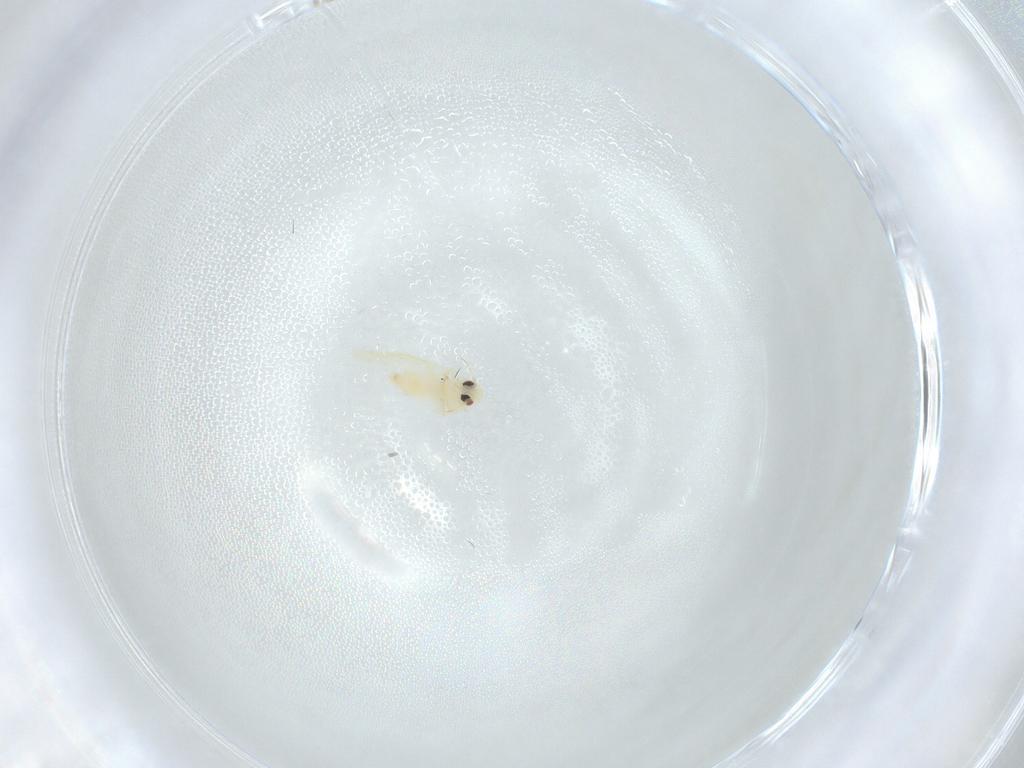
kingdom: Animalia
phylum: Arthropoda
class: Insecta
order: Hemiptera
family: Aleyrodidae
